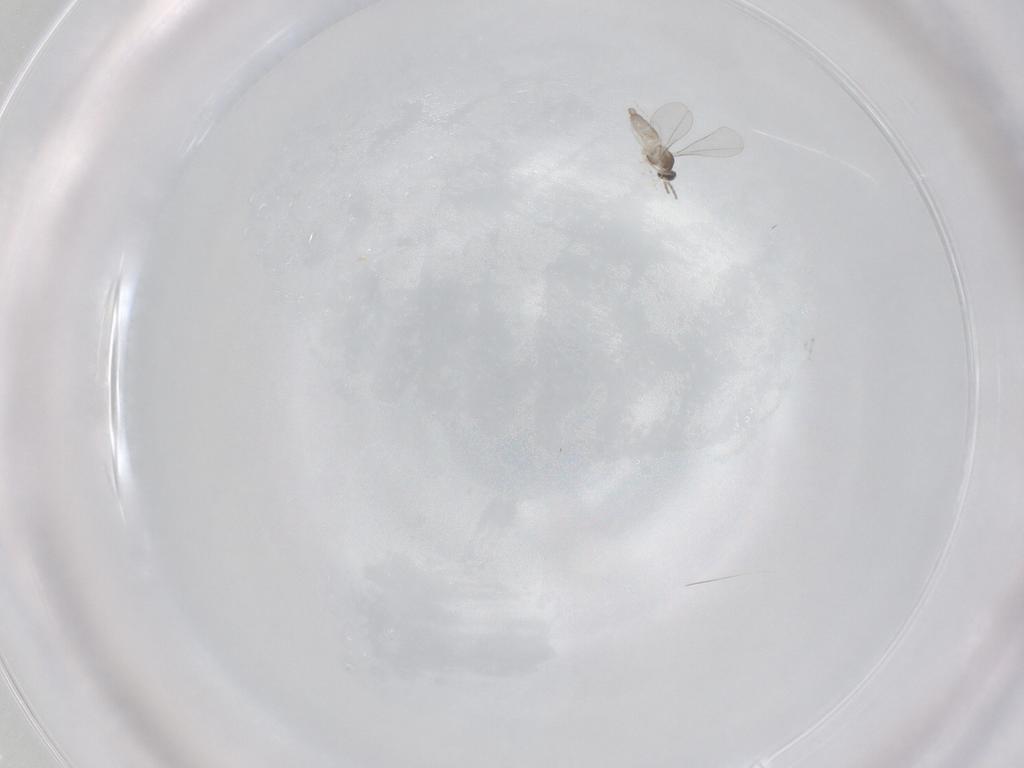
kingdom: Animalia
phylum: Arthropoda
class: Insecta
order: Diptera
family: Cecidomyiidae
